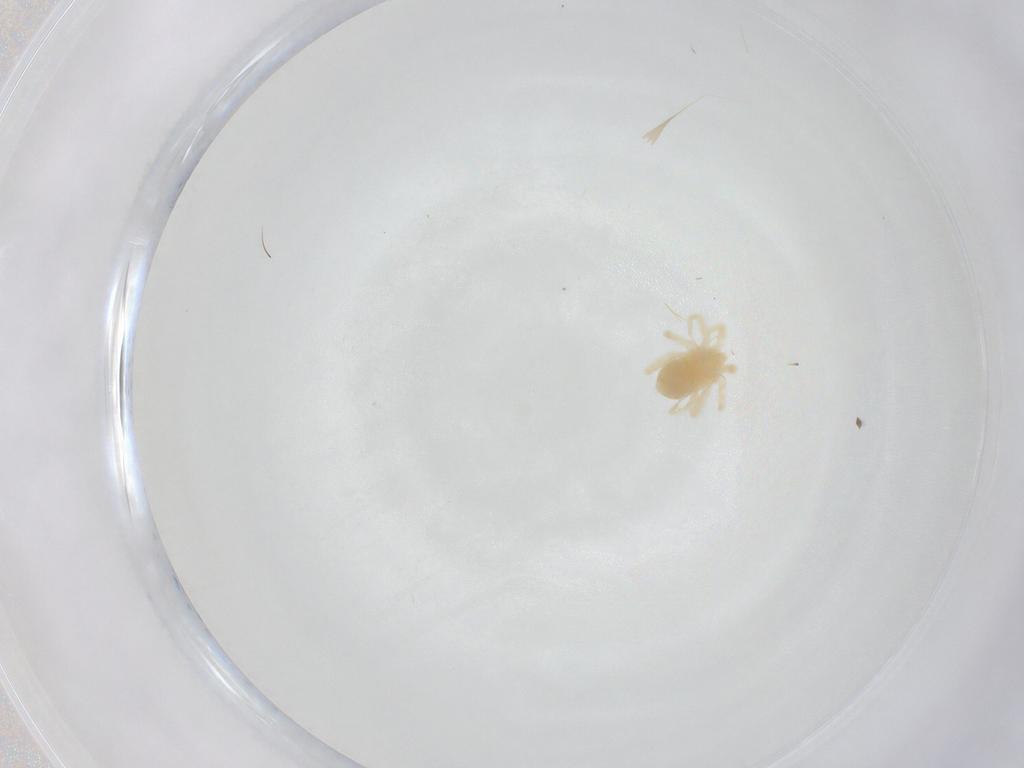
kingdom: Animalia
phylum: Arthropoda
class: Arachnida
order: Trombidiformes
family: Anystidae
